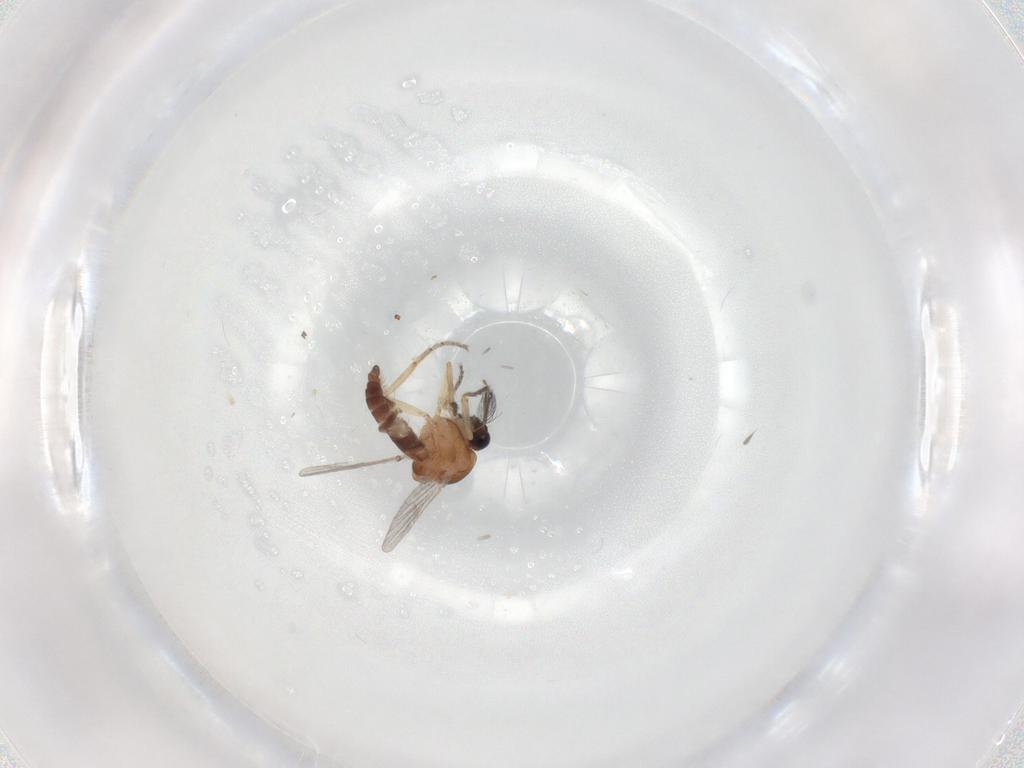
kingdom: Animalia
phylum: Arthropoda
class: Insecta
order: Diptera
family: Ceratopogonidae
